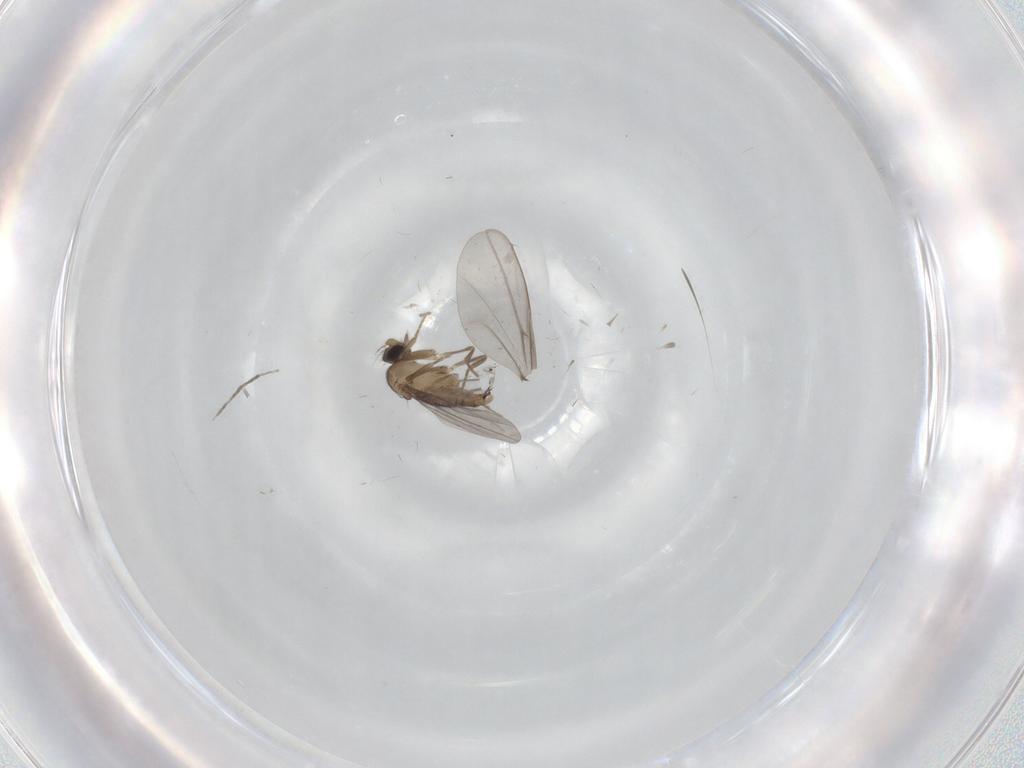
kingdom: Animalia
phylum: Arthropoda
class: Insecta
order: Diptera
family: Cecidomyiidae
